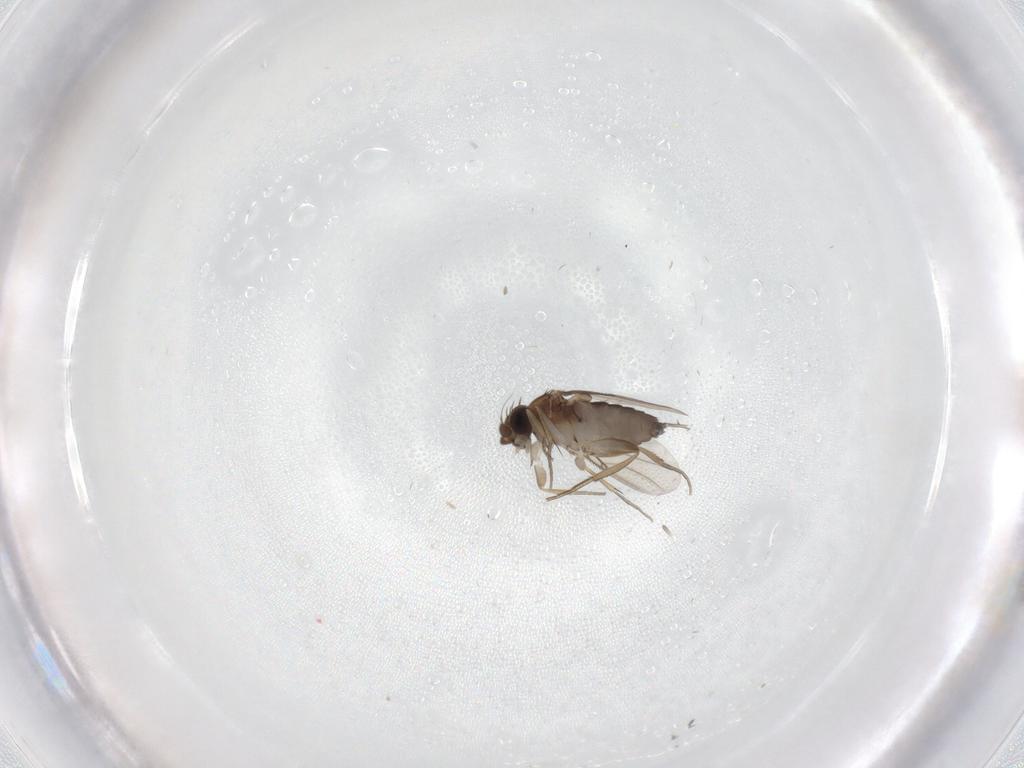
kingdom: Animalia
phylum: Arthropoda
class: Insecta
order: Diptera
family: Phoridae
